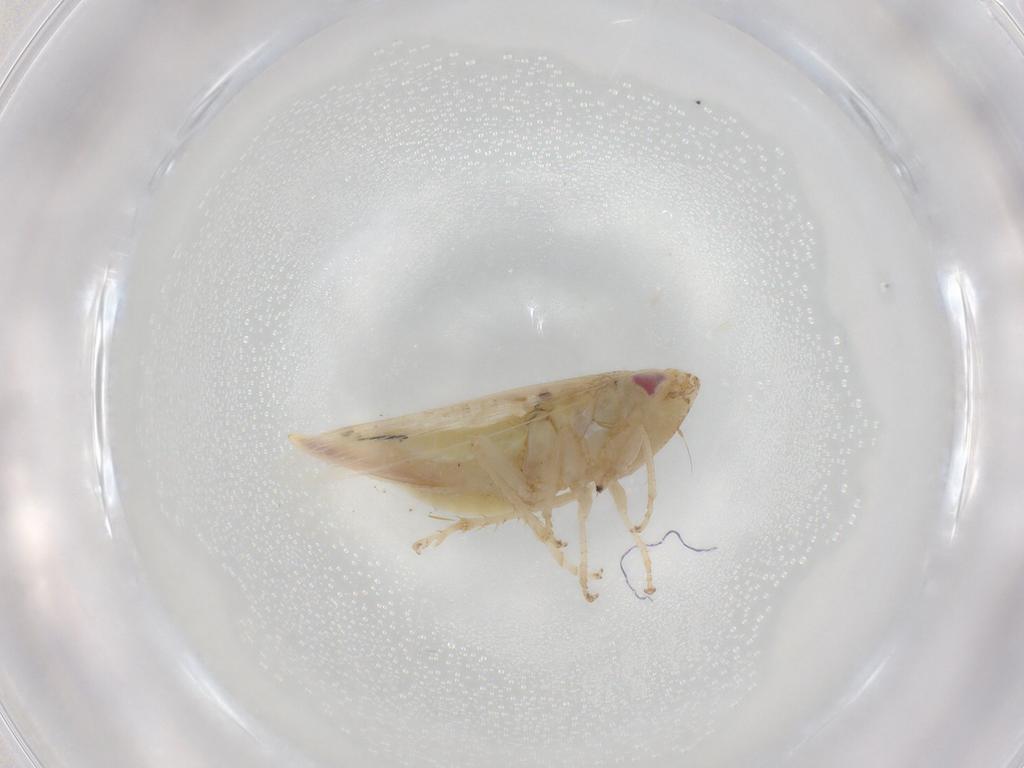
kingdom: Animalia
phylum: Arthropoda
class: Insecta
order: Hemiptera
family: Cicadellidae
